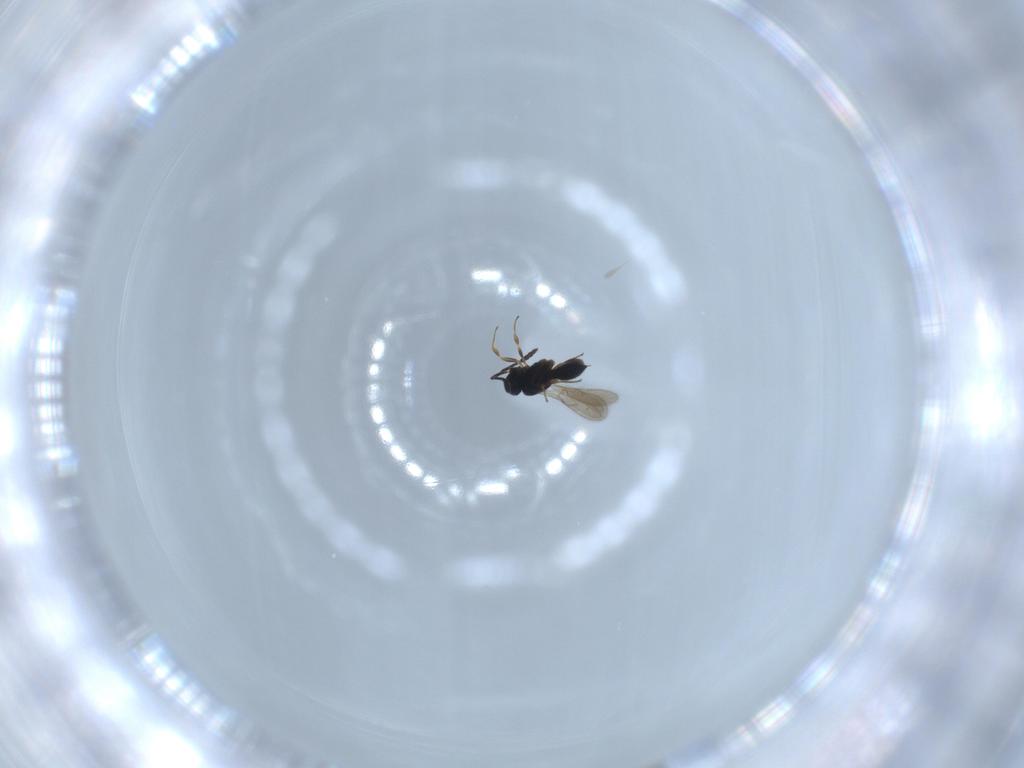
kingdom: Animalia
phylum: Arthropoda
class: Insecta
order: Hymenoptera
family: Scelionidae
